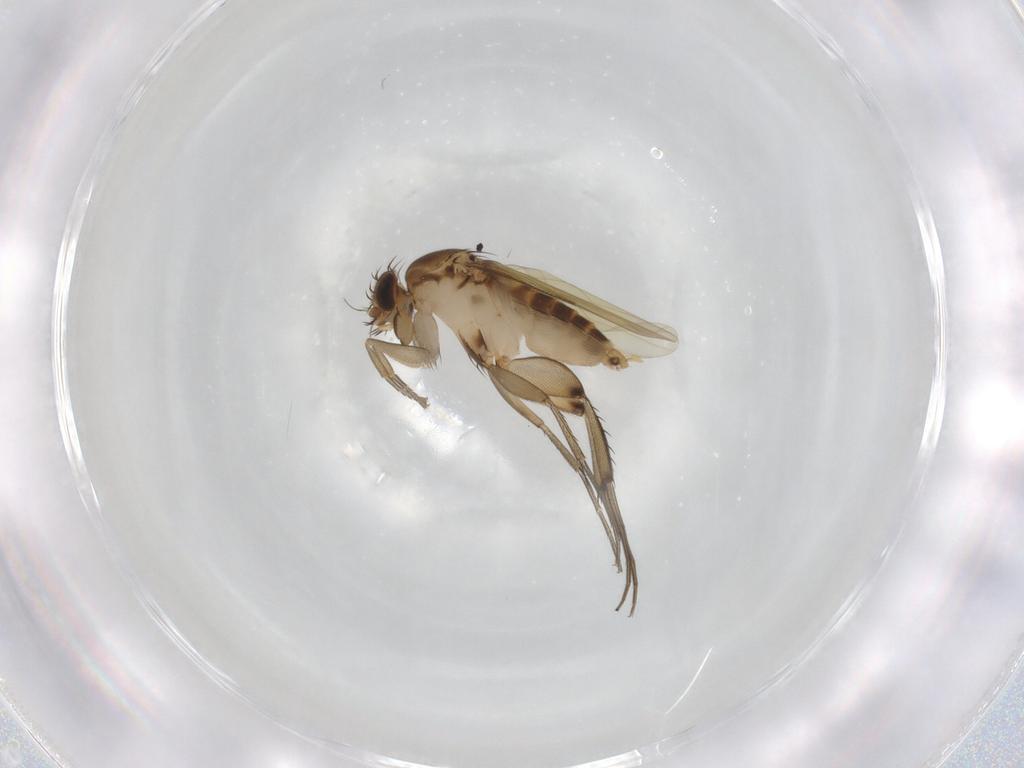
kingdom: Animalia
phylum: Arthropoda
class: Insecta
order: Diptera
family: Phoridae
